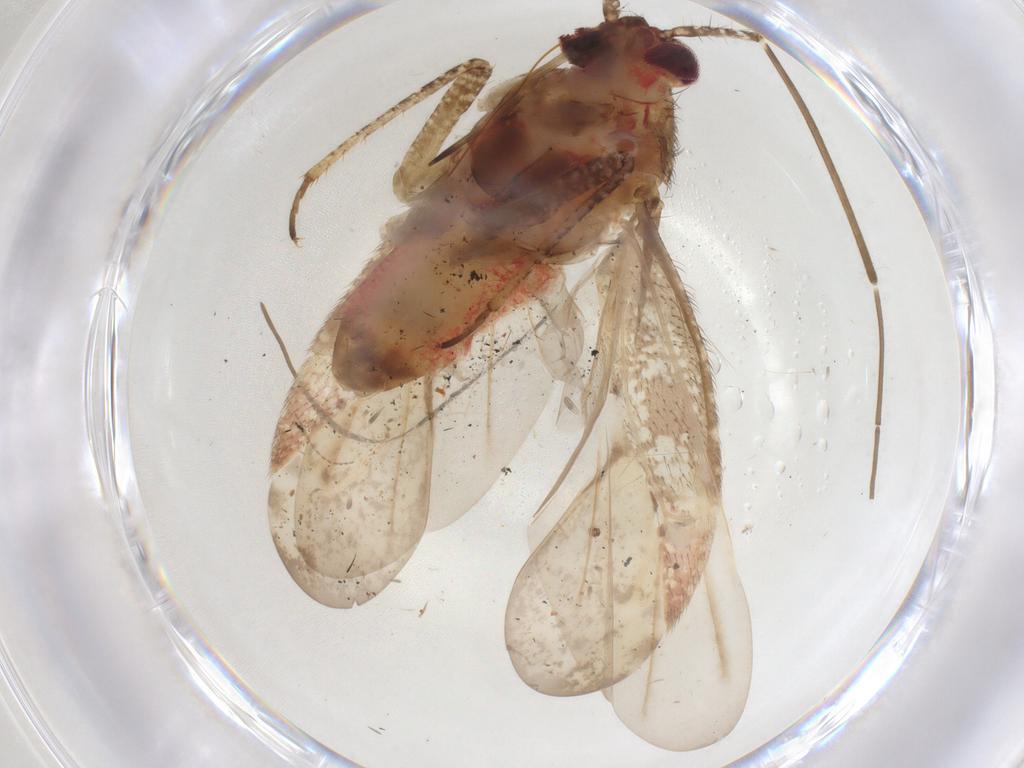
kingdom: Animalia
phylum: Arthropoda
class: Insecta
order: Hemiptera
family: Miridae
